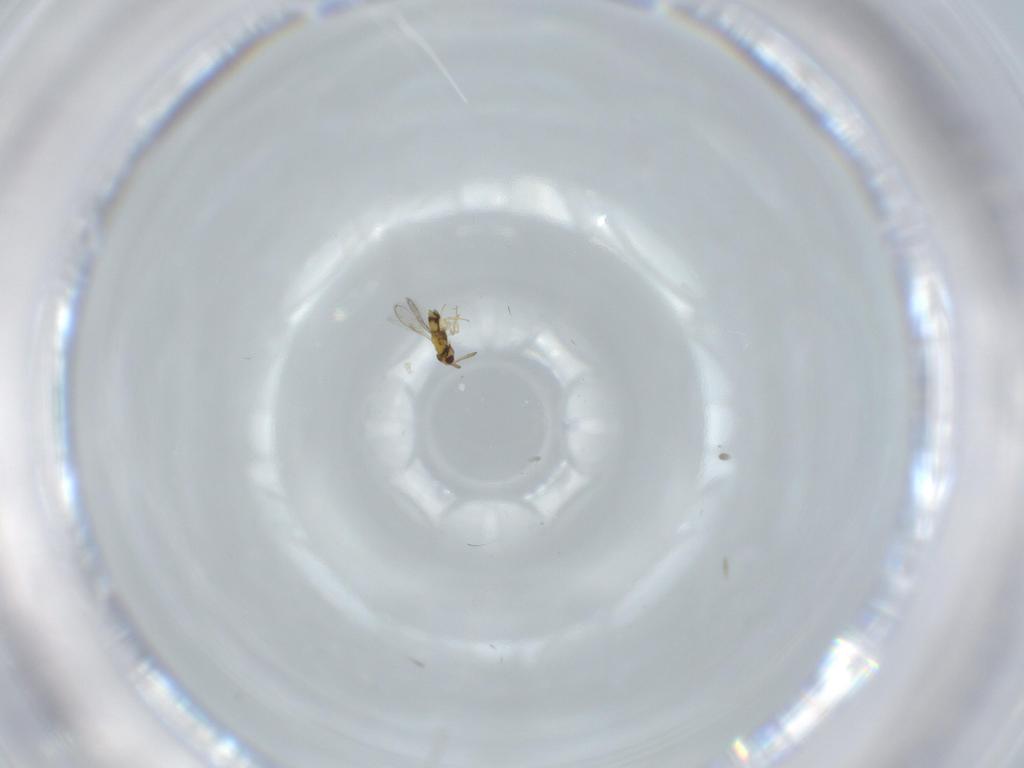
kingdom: Animalia
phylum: Arthropoda
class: Insecta
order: Hymenoptera
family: Aphelinidae
